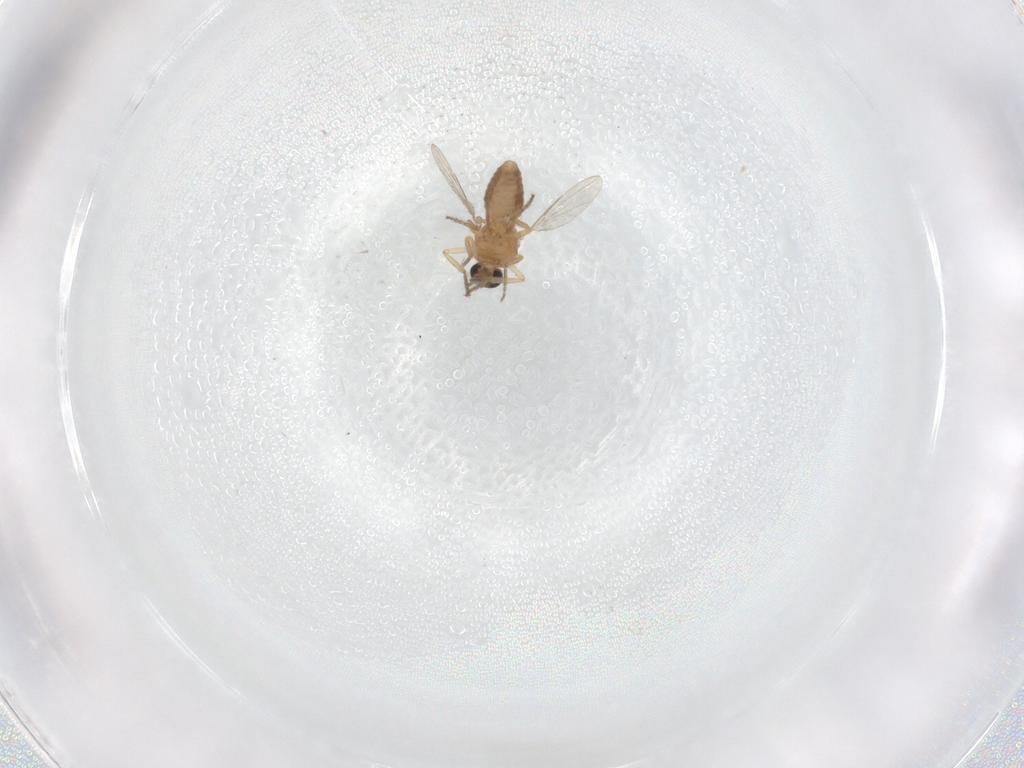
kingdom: Animalia
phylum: Arthropoda
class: Insecta
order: Diptera
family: Ceratopogonidae
